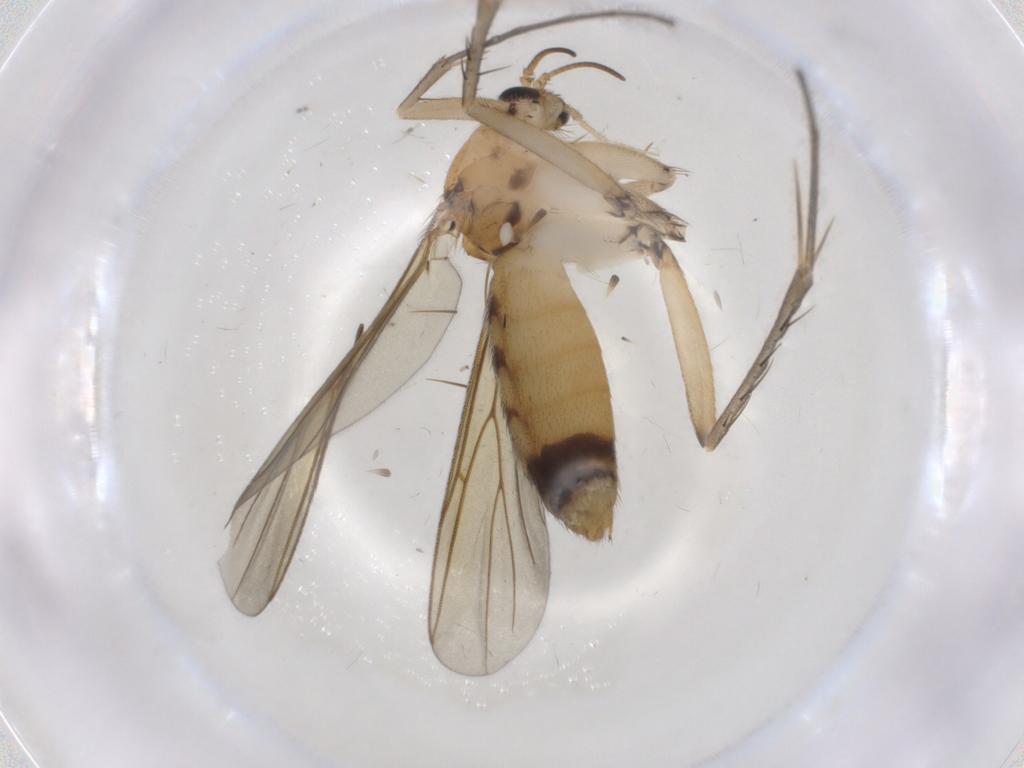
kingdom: Animalia
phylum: Arthropoda
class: Insecta
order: Diptera
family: Mycetophilidae
